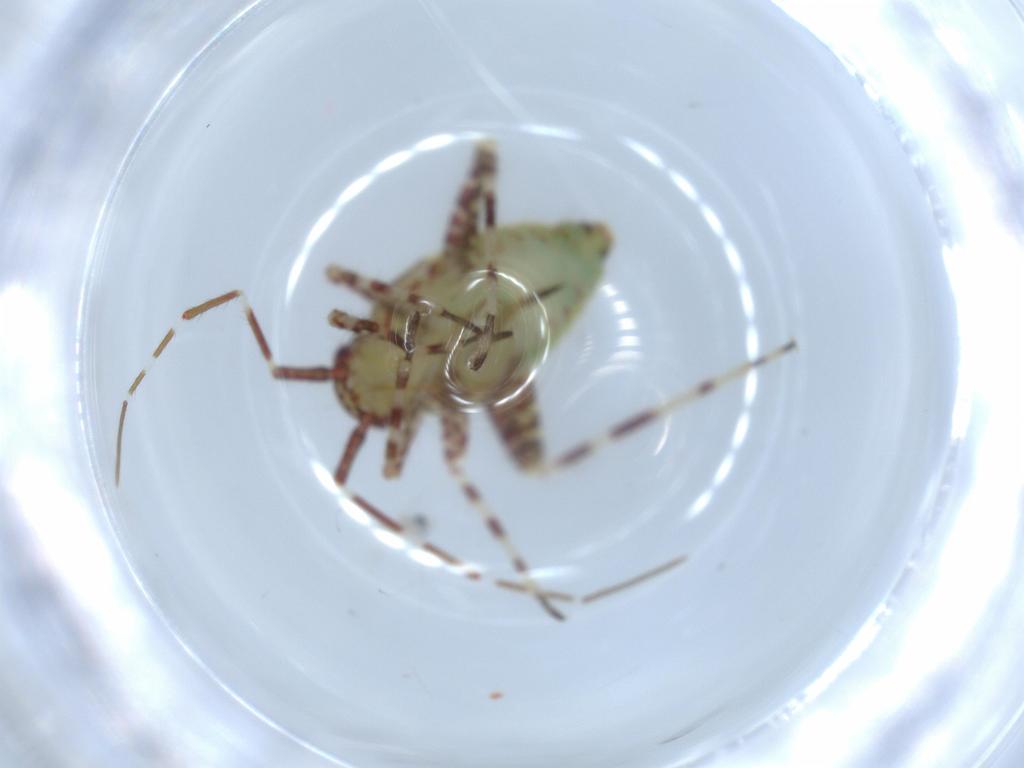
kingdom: Animalia
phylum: Arthropoda
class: Insecta
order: Hemiptera
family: Miridae
